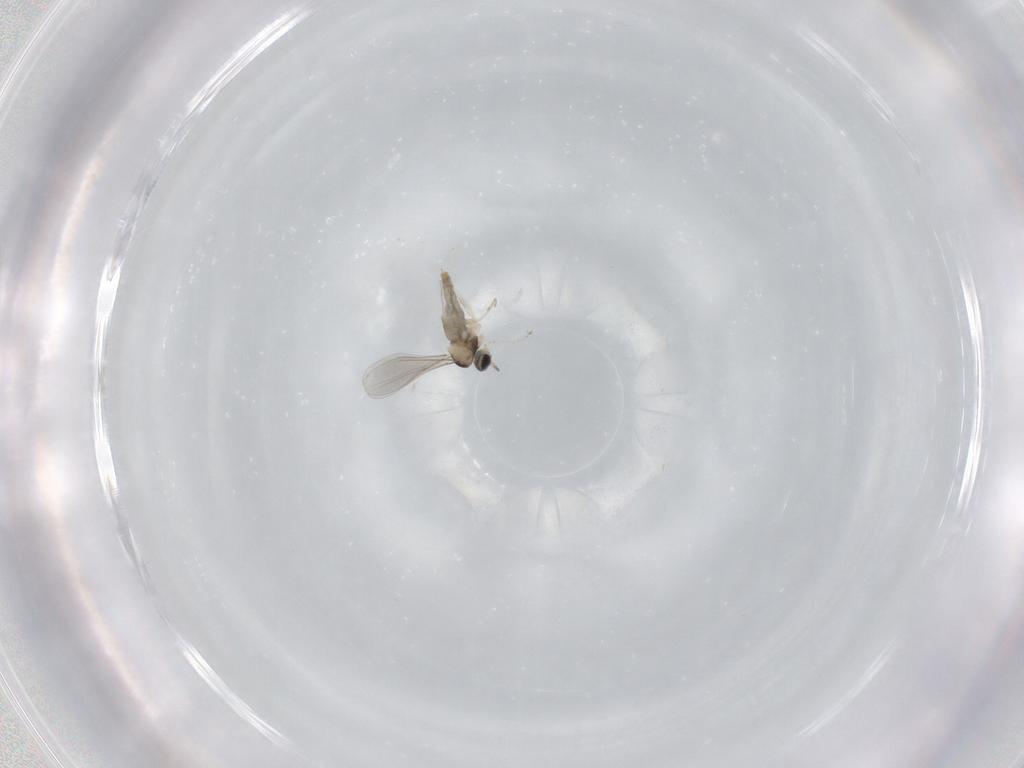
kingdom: Animalia
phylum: Arthropoda
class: Insecta
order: Diptera
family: Cecidomyiidae
